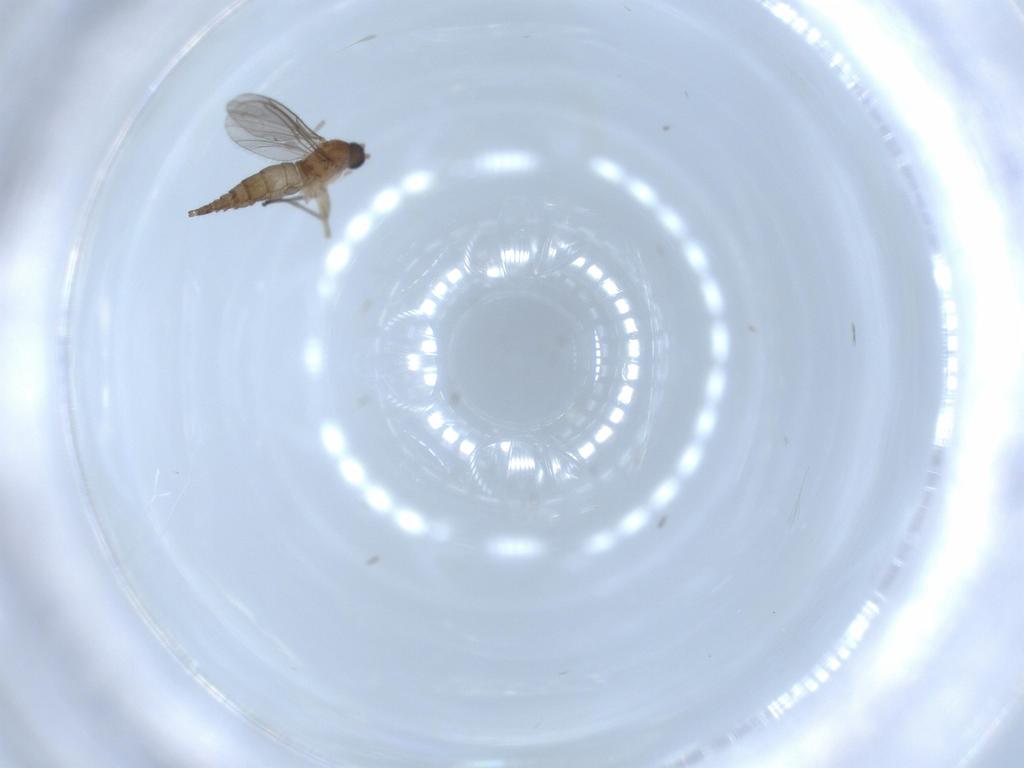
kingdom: Animalia
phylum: Arthropoda
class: Insecta
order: Diptera
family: Sciaridae
